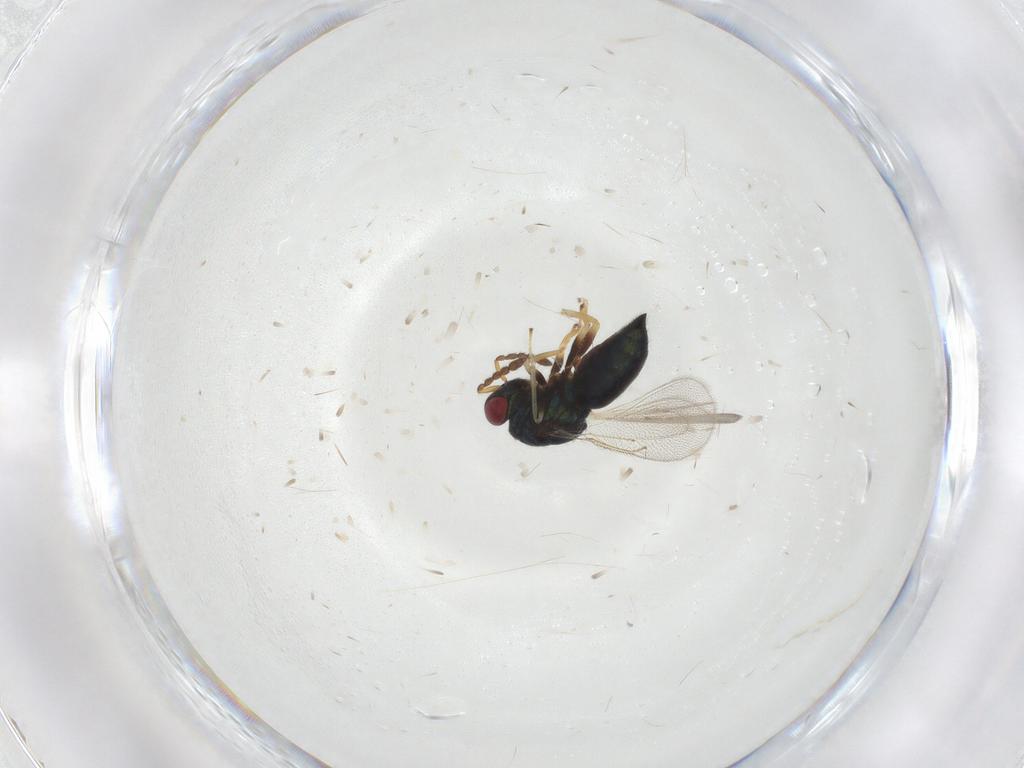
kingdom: Animalia
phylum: Arthropoda
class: Insecta
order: Hymenoptera
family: Eulophidae
